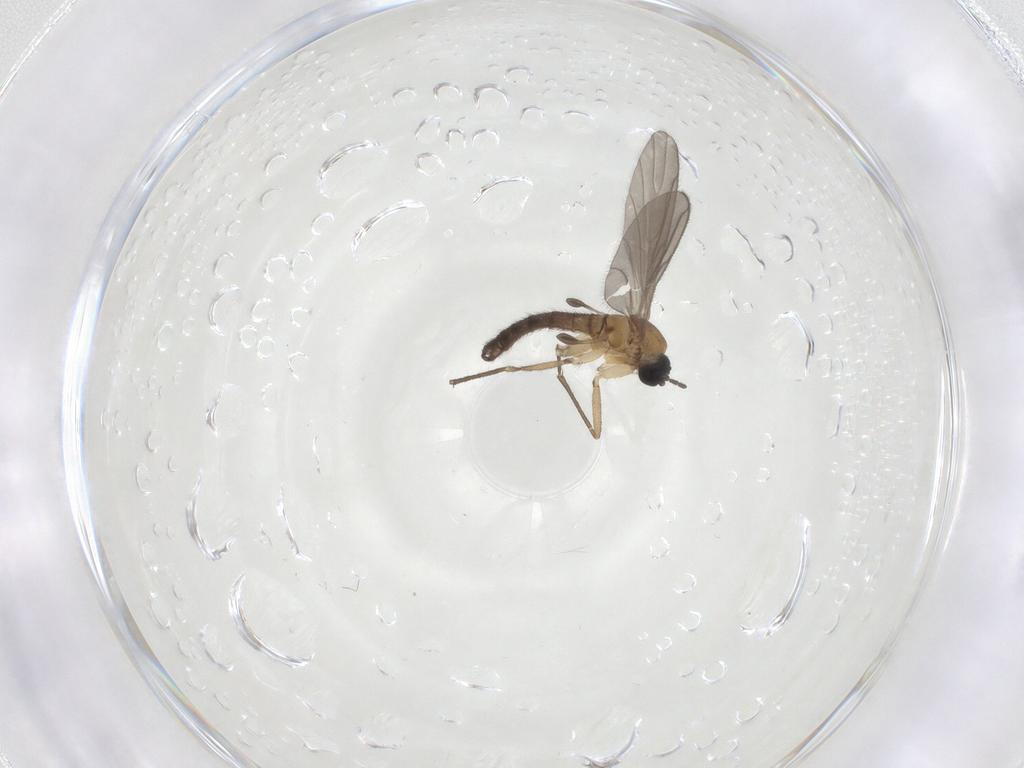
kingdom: Animalia
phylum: Arthropoda
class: Insecta
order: Diptera
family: Sciaridae
